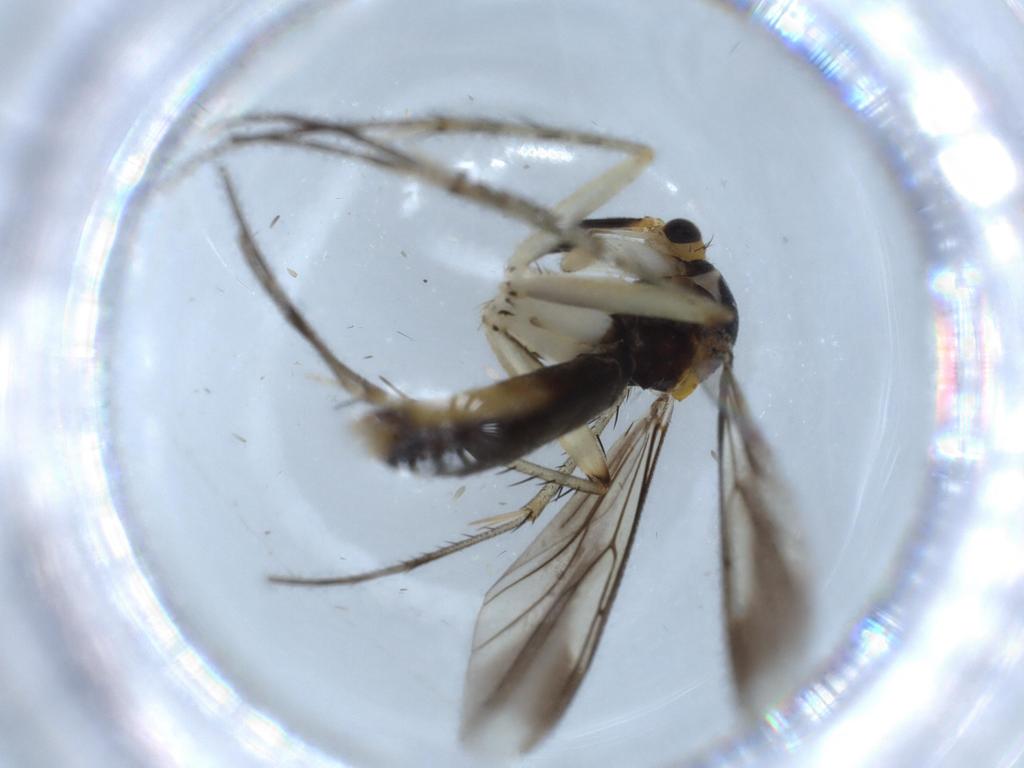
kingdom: Animalia
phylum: Arthropoda
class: Insecta
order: Diptera
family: Mycetophilidae
